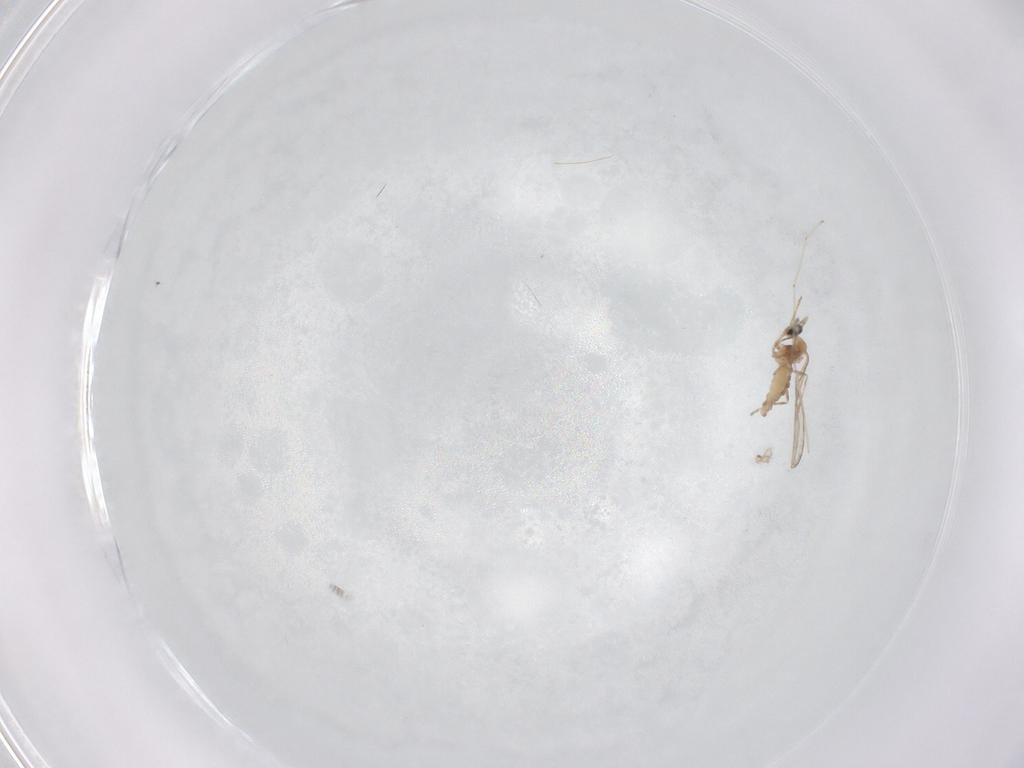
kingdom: Animalia
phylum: Arthropoda
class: Insecta
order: Diptera
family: Cecidomyiidae
